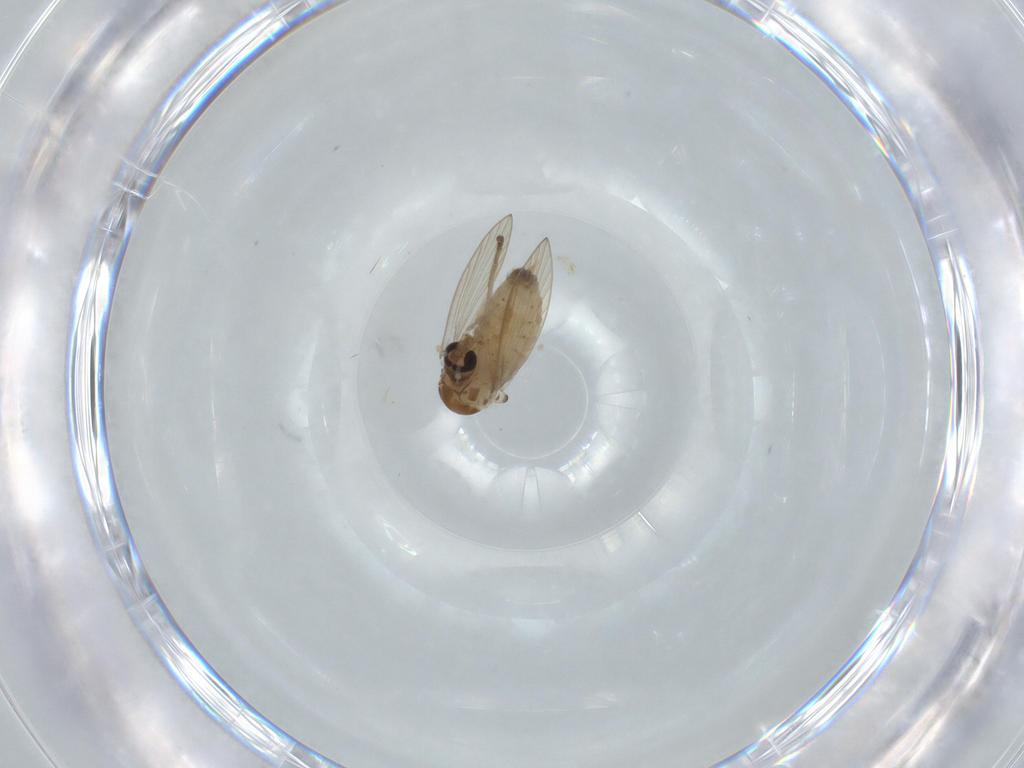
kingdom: Animalia
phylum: Arthropoda
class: Insecta
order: Diptera
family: Psychodidae
